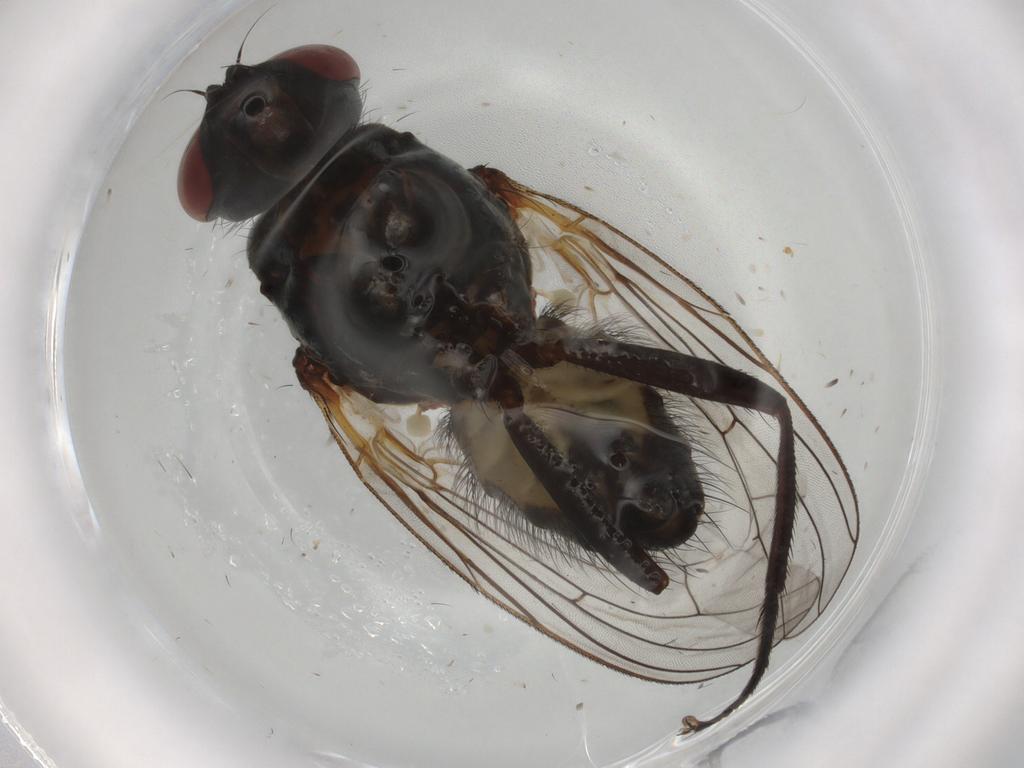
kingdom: Animalia
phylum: Arthropoda
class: Insecta
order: Diptera
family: Anthomyiidae
